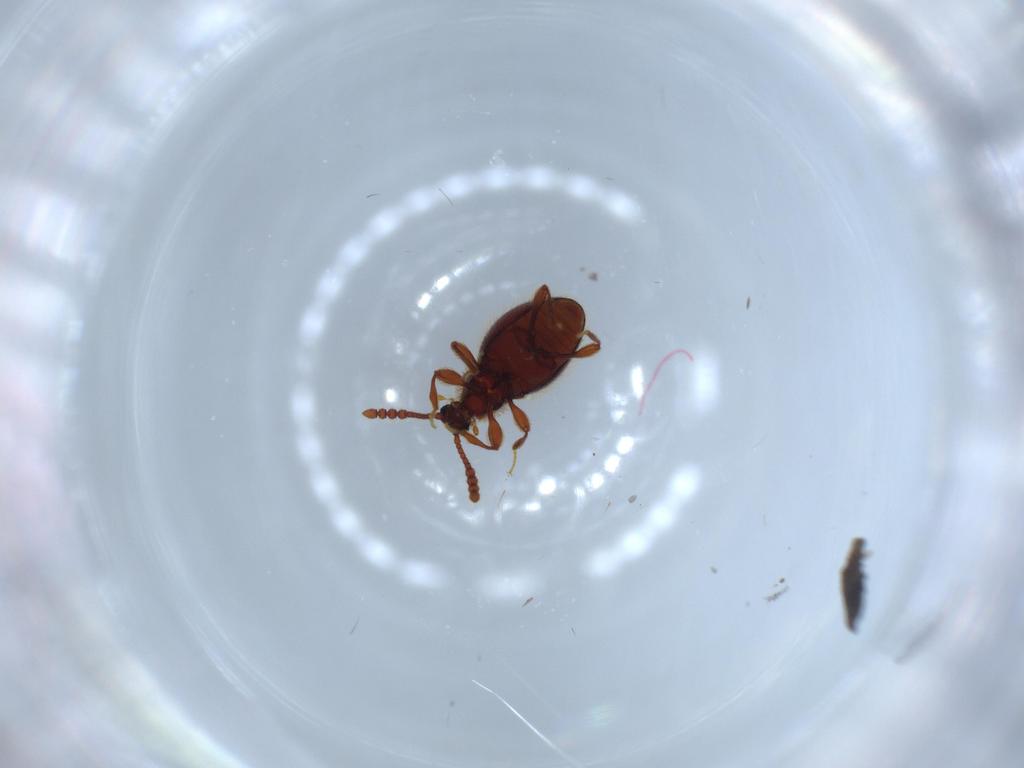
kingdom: Animalia
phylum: Arthropoda
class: Insecta
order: Coleoptera
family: Staphylinidae
